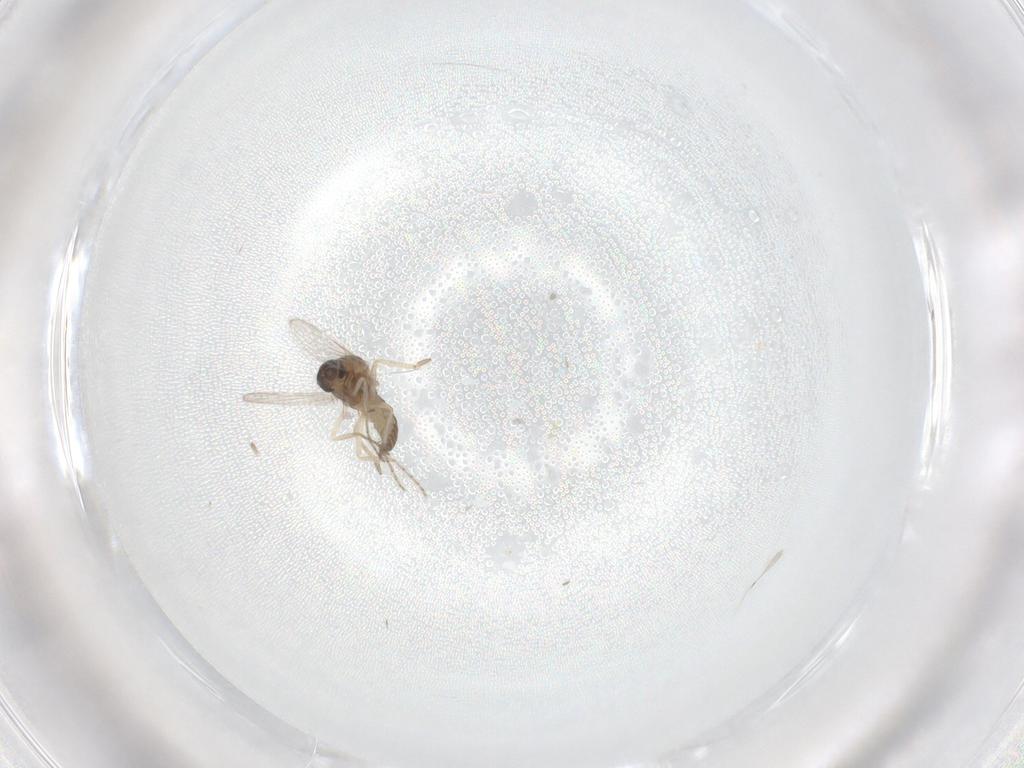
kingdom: Animalia
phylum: Arthropoda
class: Insecta
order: Diptera
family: Ceratopogonidae
